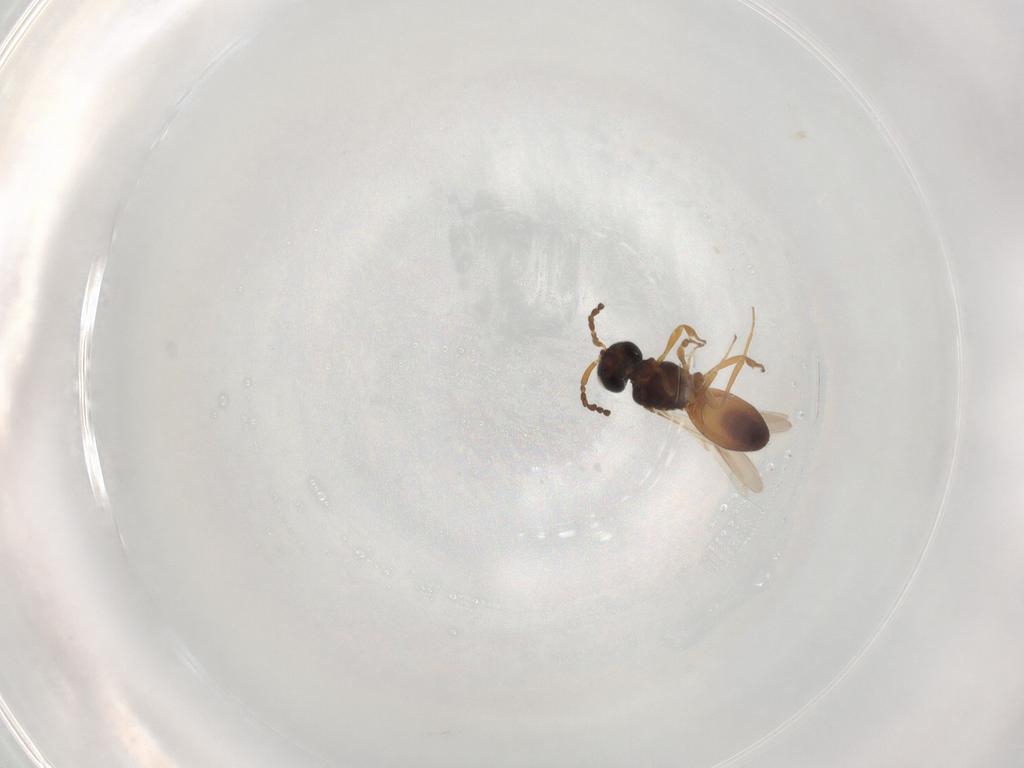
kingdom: Animalia
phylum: Arthropoda
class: Insecta
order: Hymenoptera
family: Scelionidae
